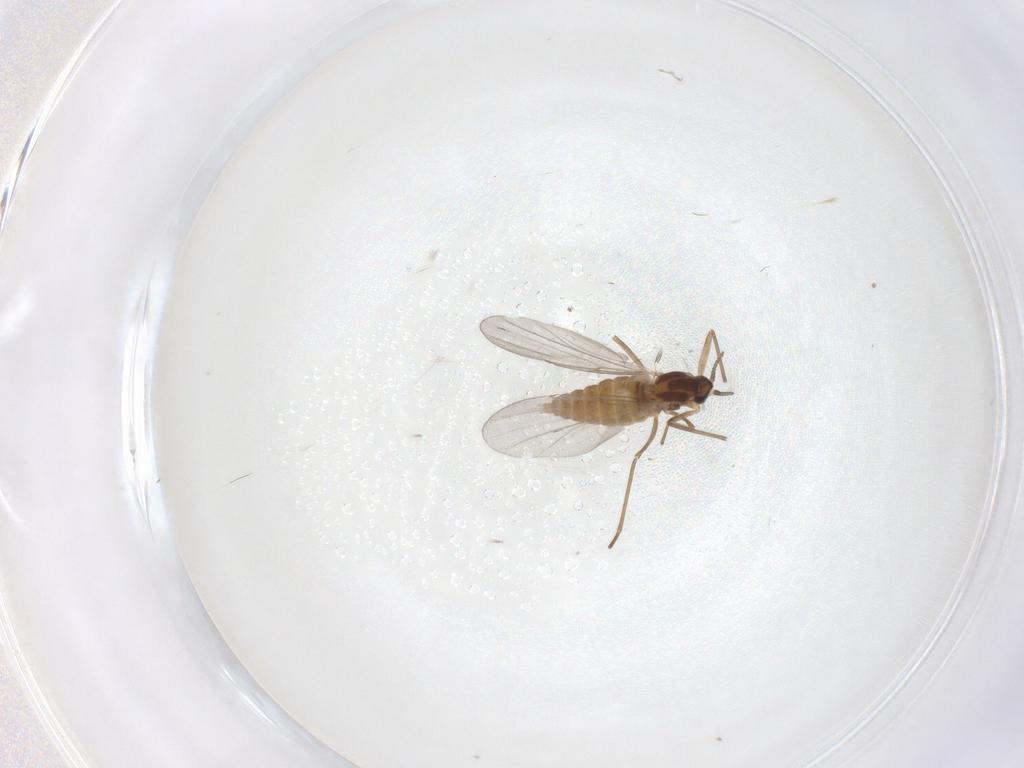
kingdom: Animalia
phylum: Arthropoda
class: Insecta
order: Diptera
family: Cecidomyiidae
